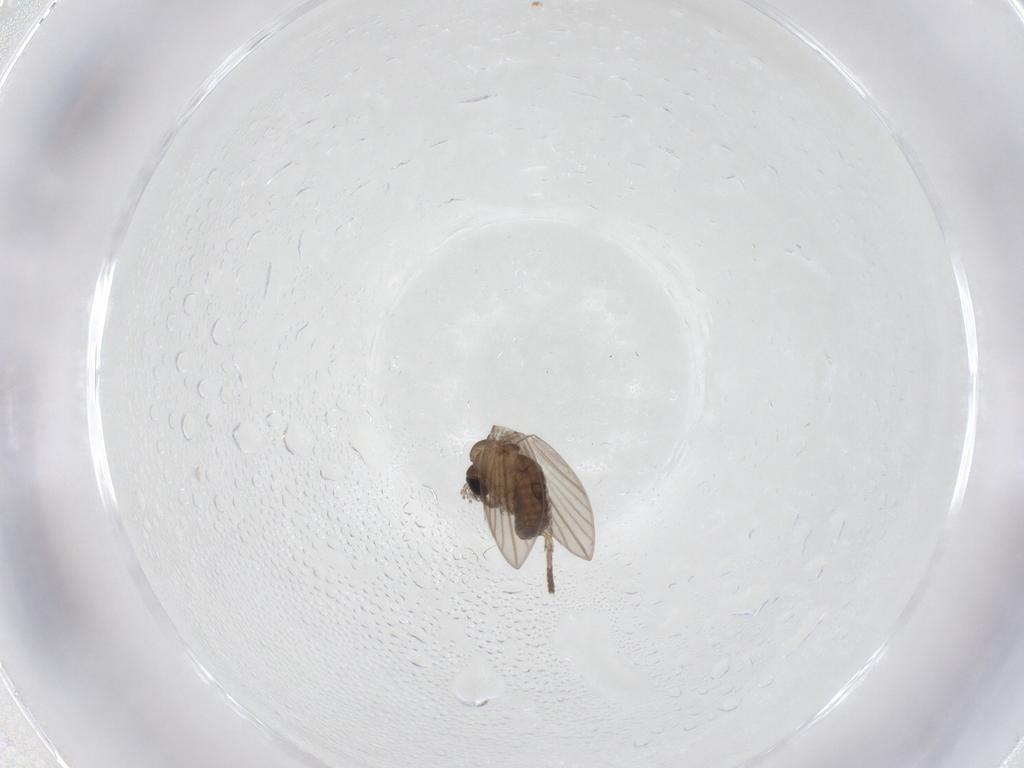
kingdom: Animalia
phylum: Arthropoda
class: Insecta
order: Diptera
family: Psychodidae
